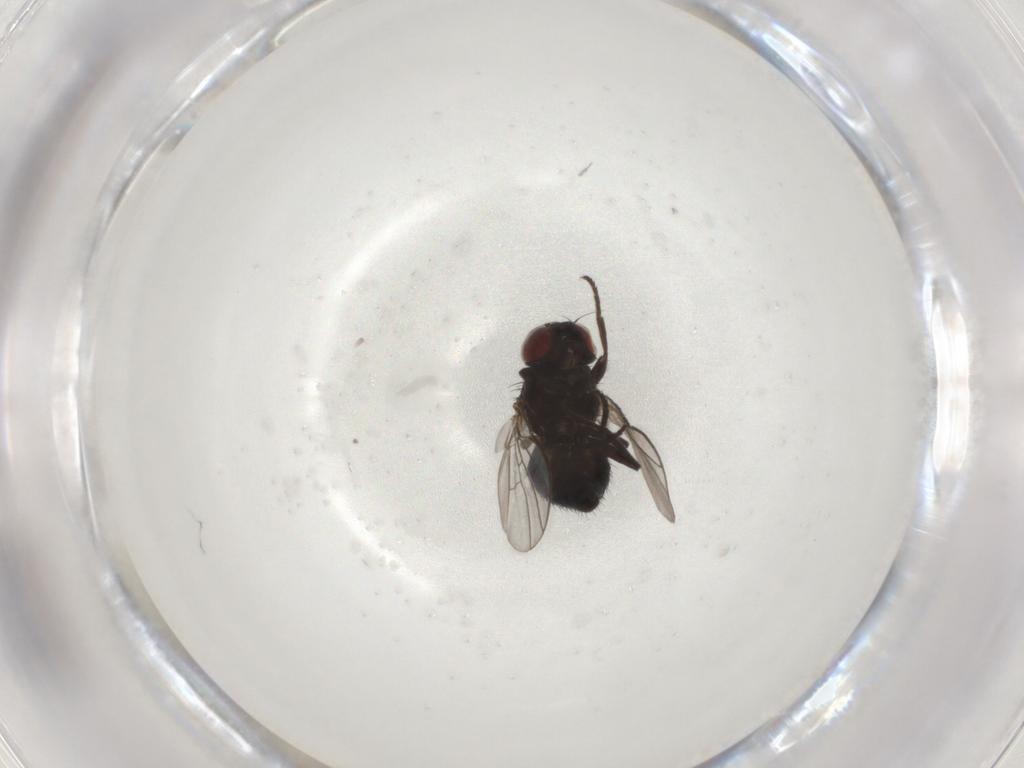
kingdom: Animalia
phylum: Arthropoda
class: Insecta
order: Diptera
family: Agromyzidae
